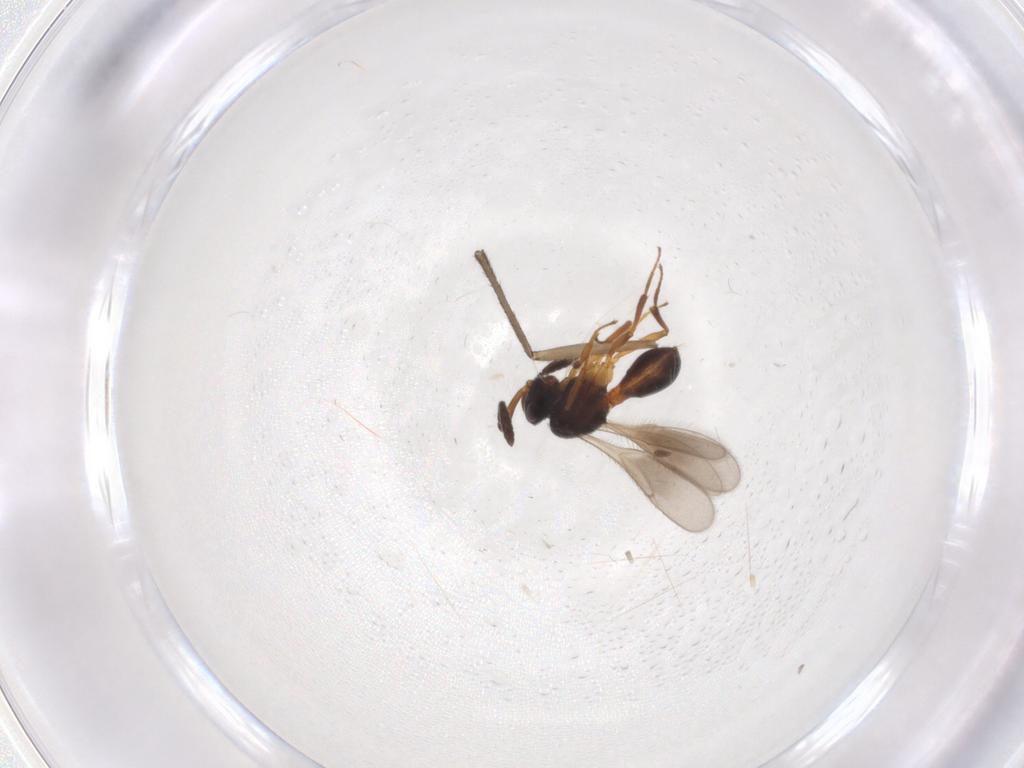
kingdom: Animalia
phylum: Arthropoda
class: Insecta
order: Hymenoptera
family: Scelionidae
